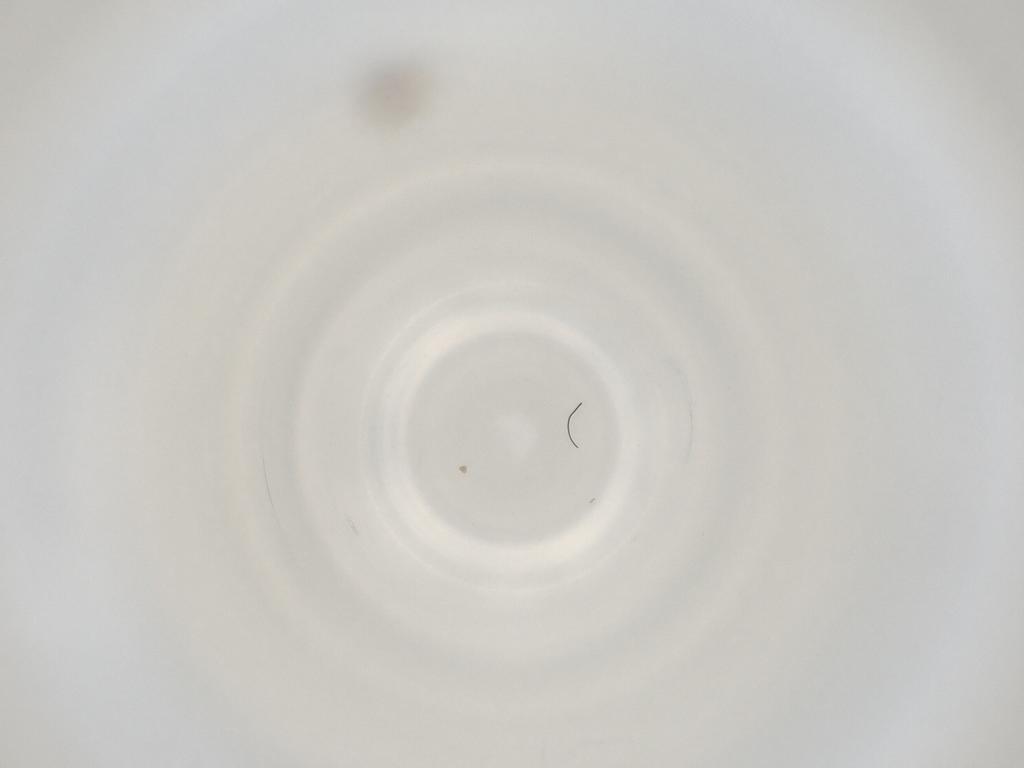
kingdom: Animalia
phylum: Arthropoda
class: Insecta
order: Diptera
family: Cecidomyiidae
